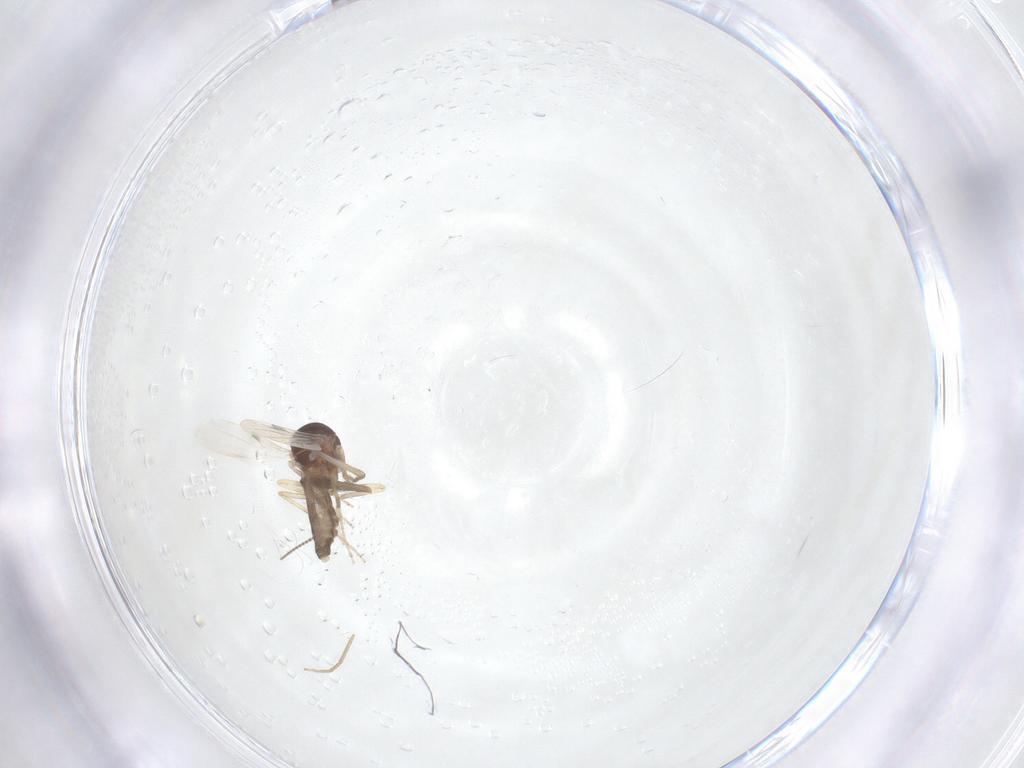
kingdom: Animalia
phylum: Arthropoda
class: Insecta
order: Diptera
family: Ceratopogonidae
